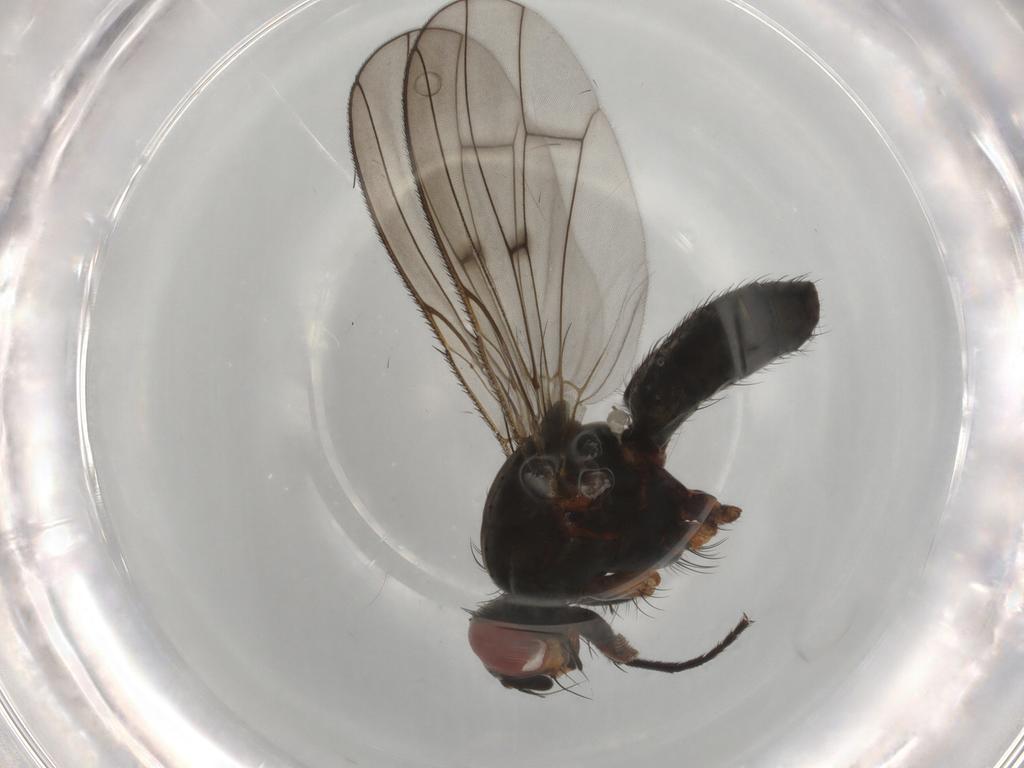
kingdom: Animalia
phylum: Arthropoda
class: Insecta
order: Diptera
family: Anthomyiidae
